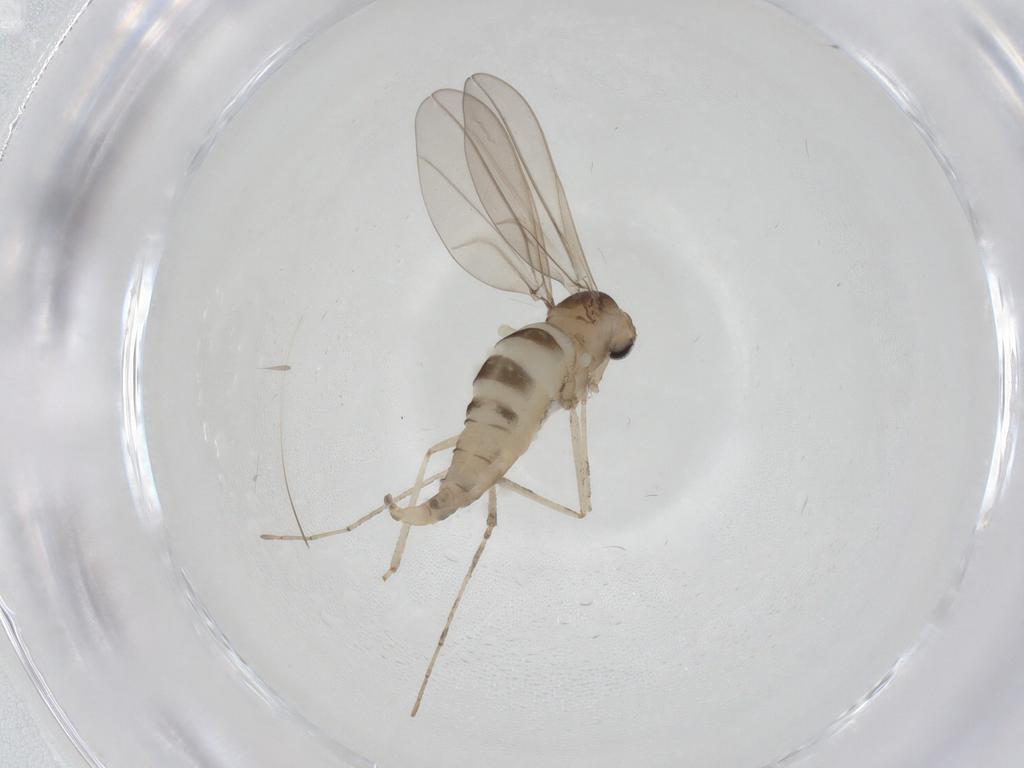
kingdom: Animalia
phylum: Arthropoda
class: Insecta
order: Diptera
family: Cecidomyiidae
